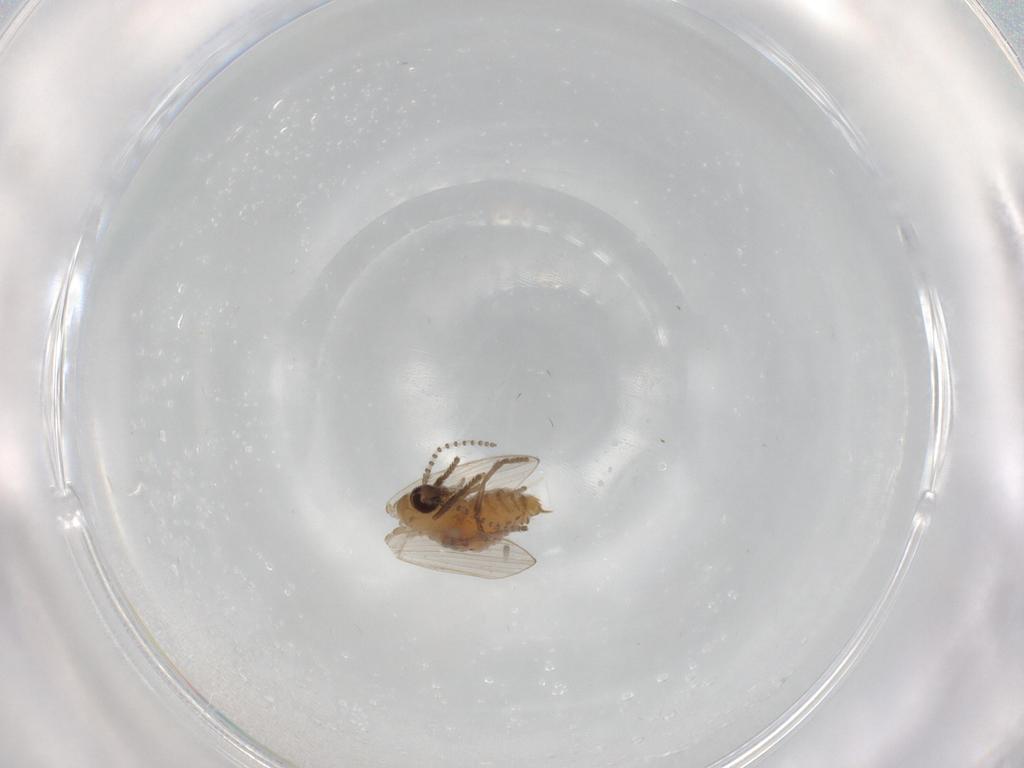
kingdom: Animalia
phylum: Arthropoda
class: Insecta
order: Diptera
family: Psychodidae
